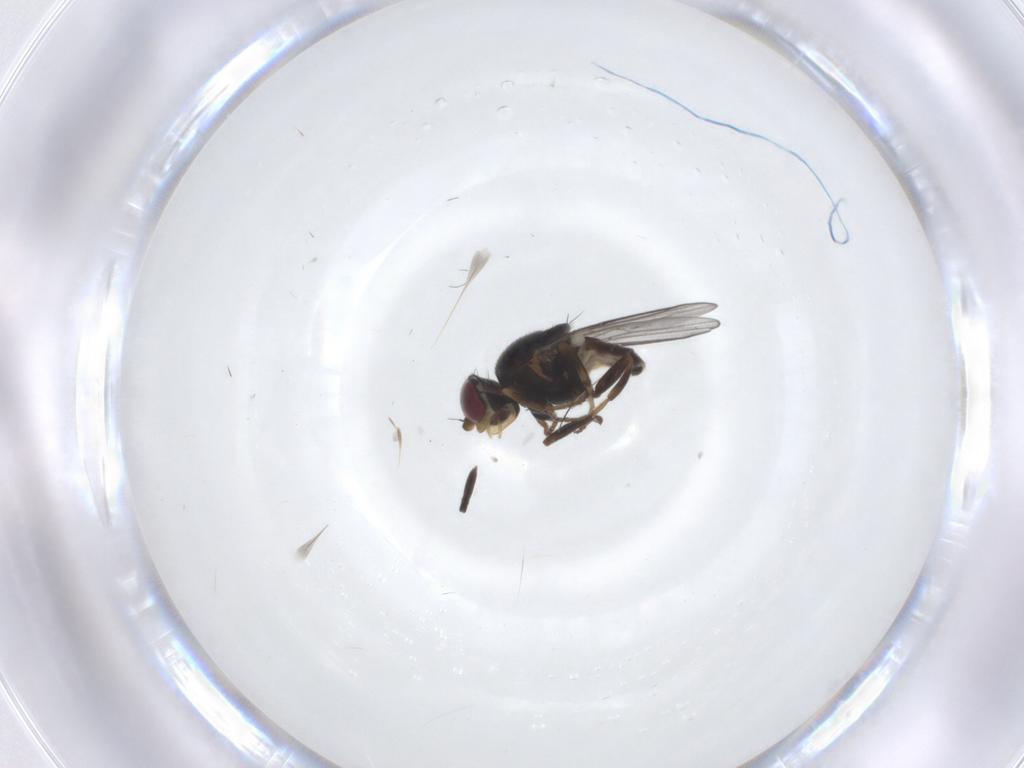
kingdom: Animalia
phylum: Arthropoda
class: Insecta
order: Diptera
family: Chloropidae
